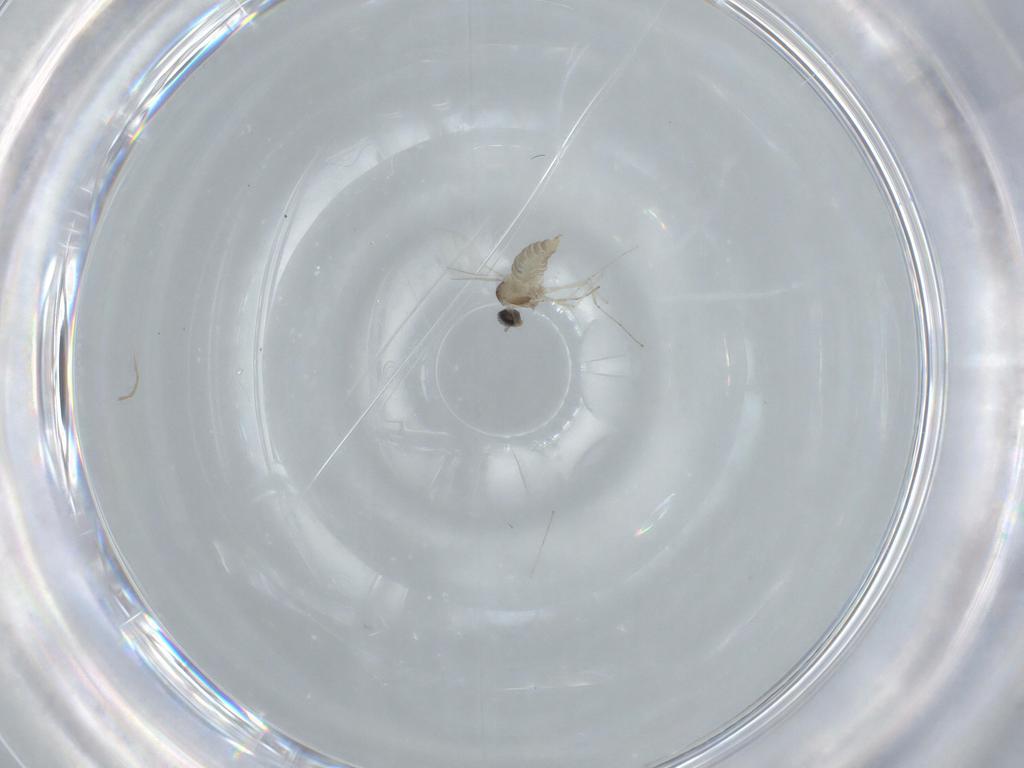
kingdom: Animalia
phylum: Arthropoda
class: Insecta
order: Diptera
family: Cecidomyiidae
